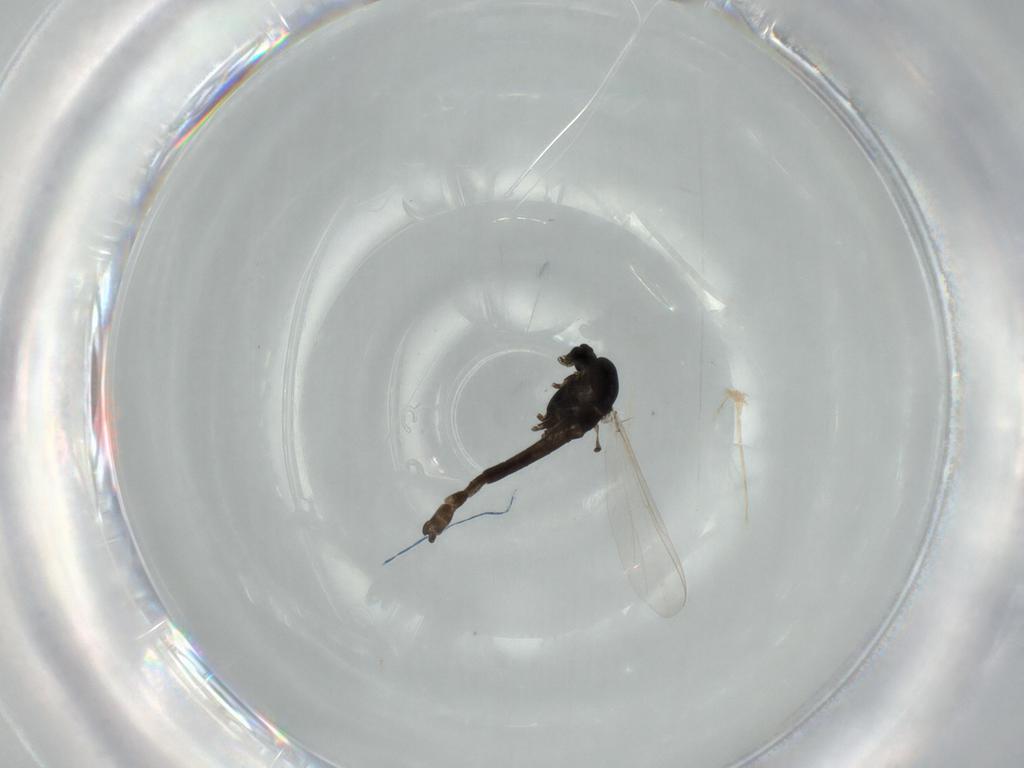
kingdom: Animalia
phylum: Arthropoda
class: Insecta
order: Diptera
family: Chironomidae
